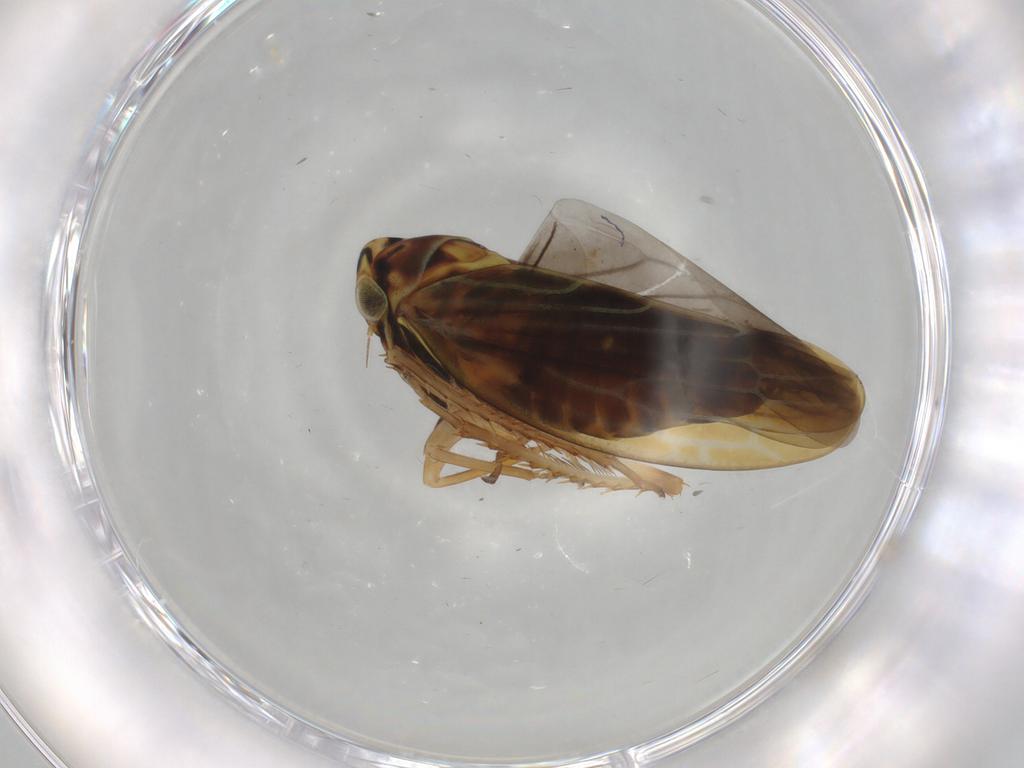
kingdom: Animalia
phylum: Arthropoda
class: Insecta
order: Hemiptera
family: Cicadellidae
